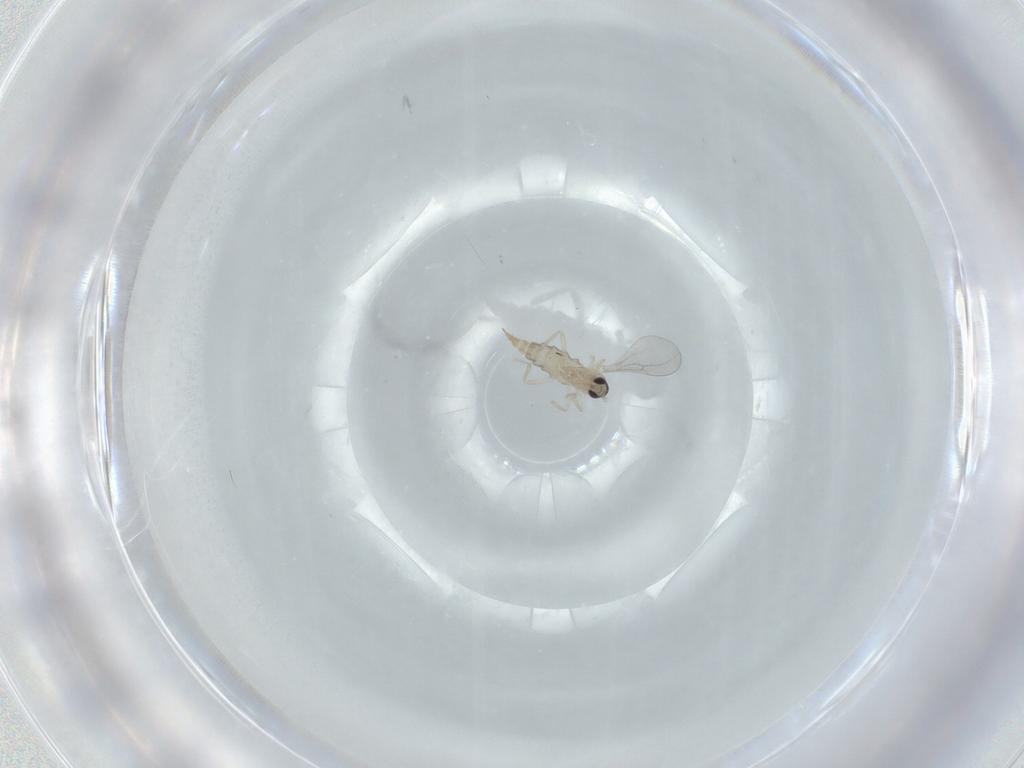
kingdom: Animalia
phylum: Arthropoda
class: Insecta
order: Diptera
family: Cecidomyiidae
